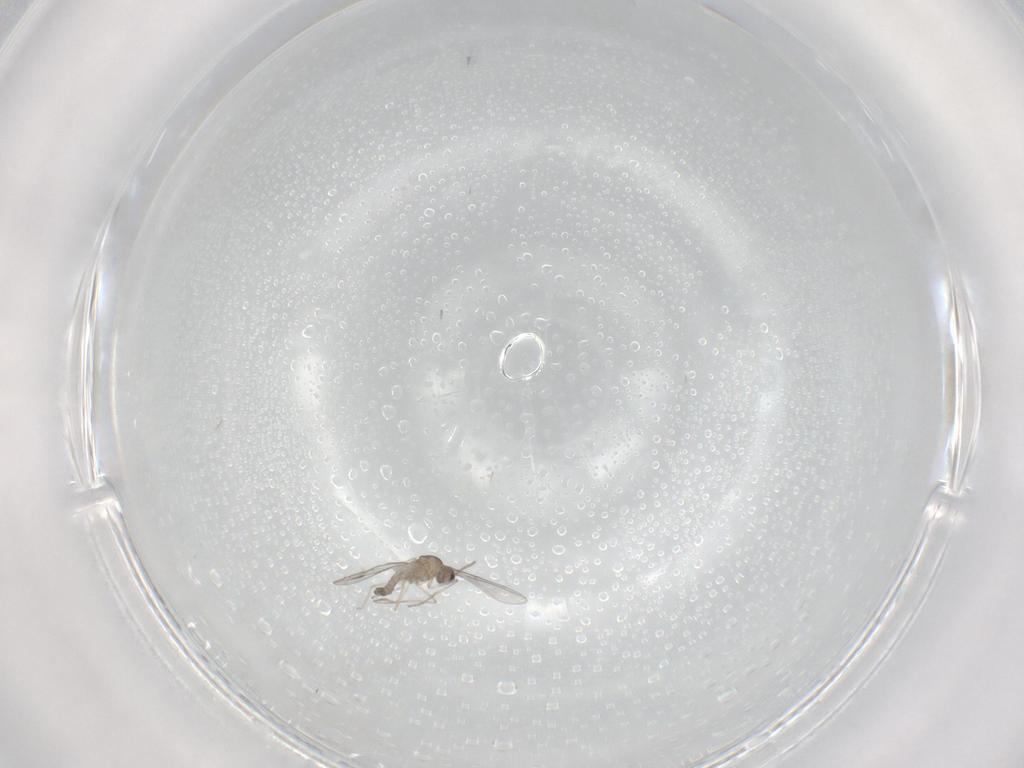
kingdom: Animalia
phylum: Arthropoda
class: Insecta
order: Diptera
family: Cecidomyiidae
